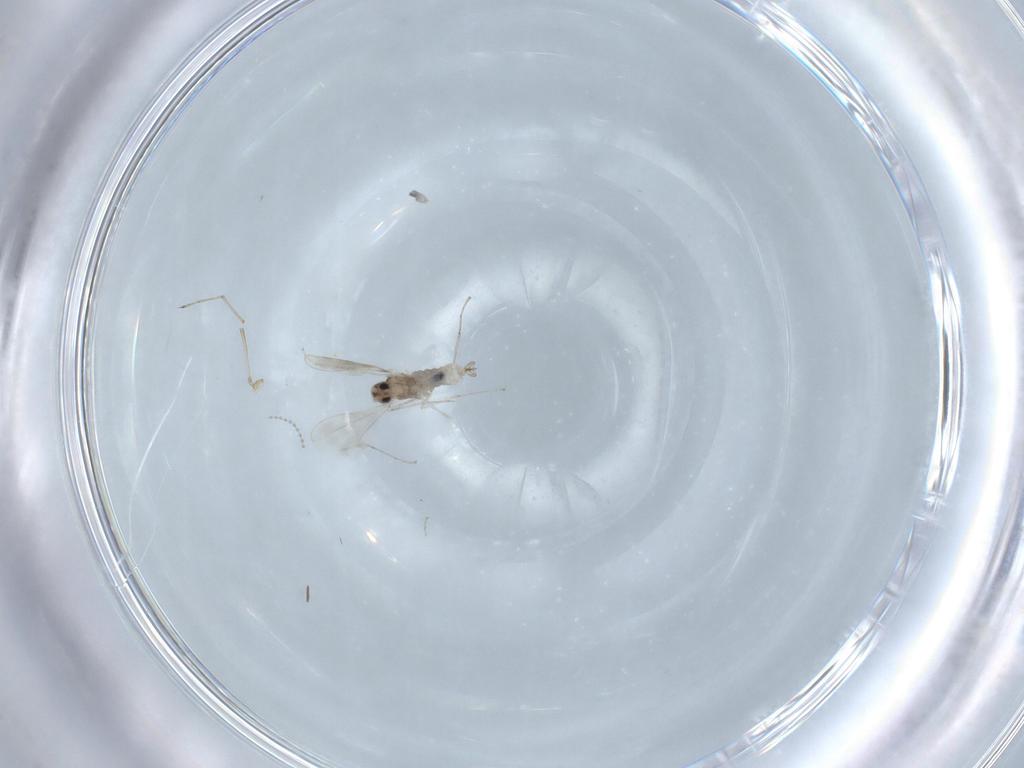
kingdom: Animalia
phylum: Arthropoda
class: Insecta
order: Diptera
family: Cecidomyiidae
